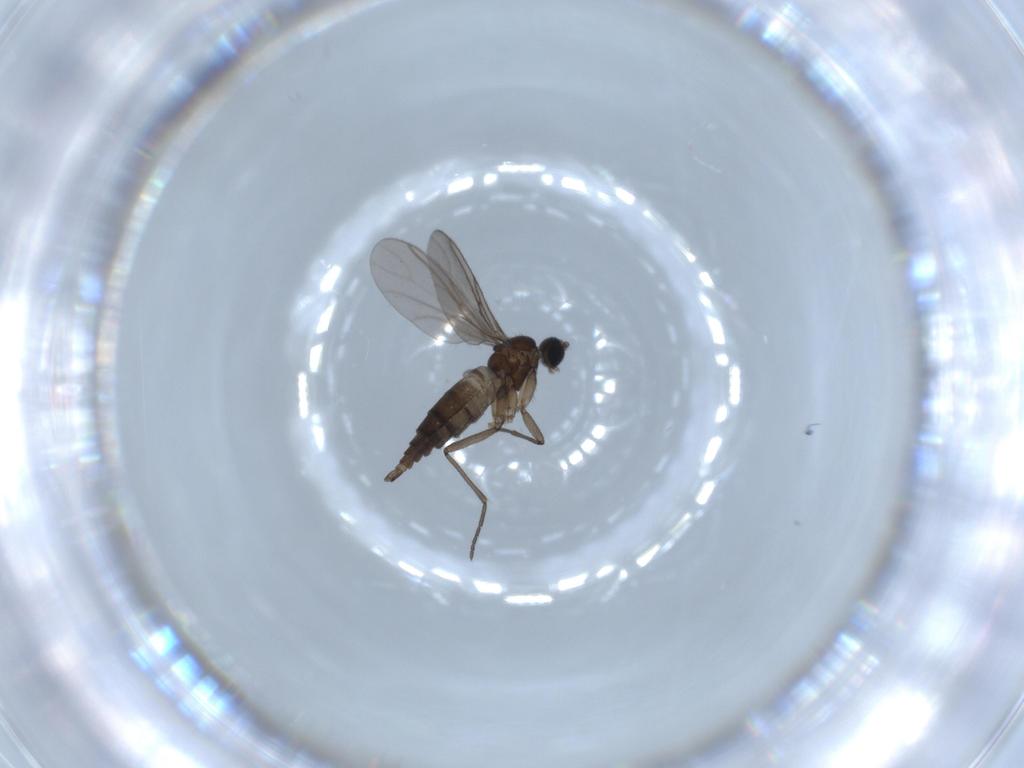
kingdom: Animalia
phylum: Arthropoda
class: Insecta
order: Diptera
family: Cecidomyiidae
